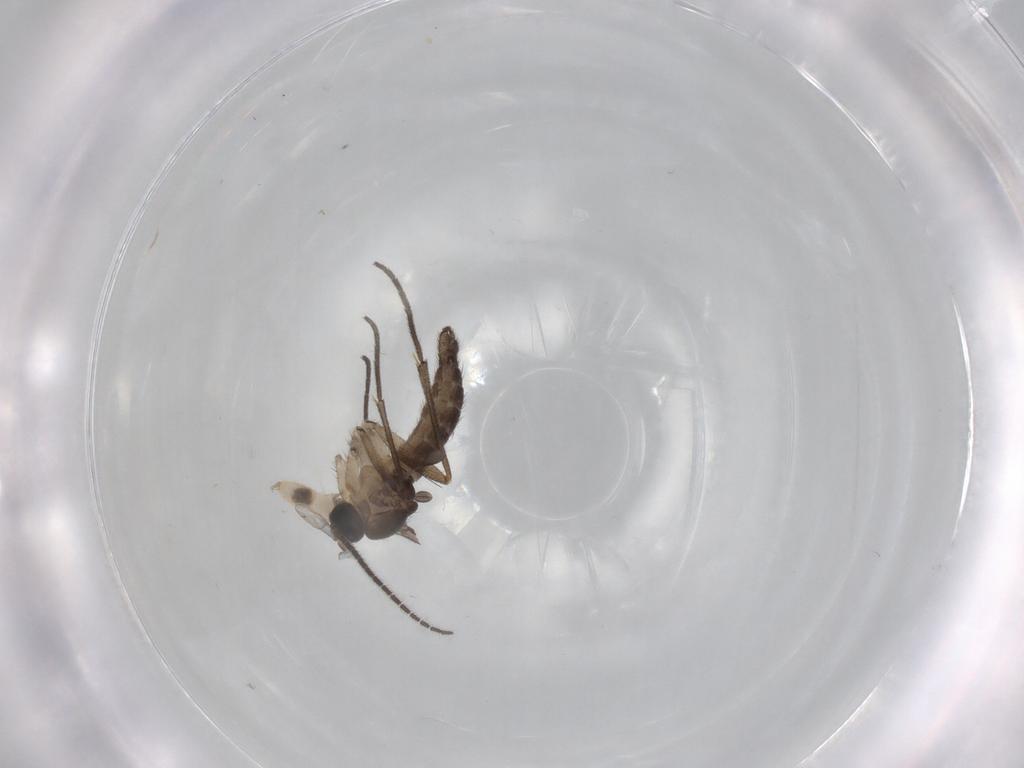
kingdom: Animalia
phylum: Arthropoda
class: Insecta
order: Diptera
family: Sciaridae
